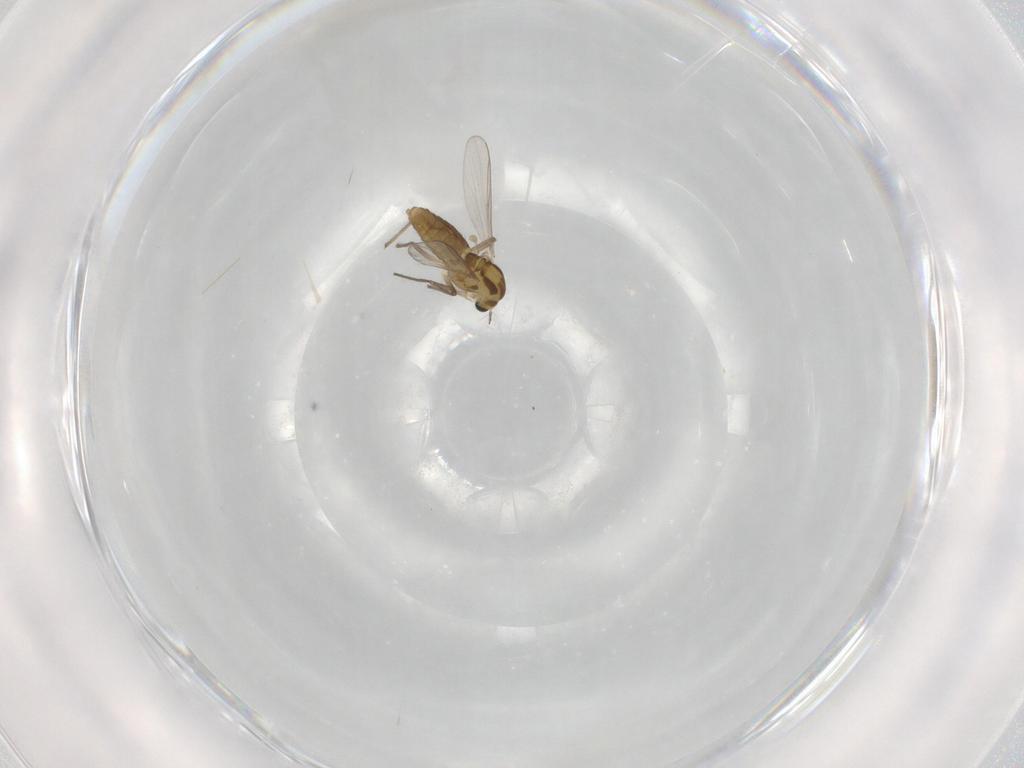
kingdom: Animalia
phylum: Arthropoda
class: Insecta
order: Diptera
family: Chironomidae
